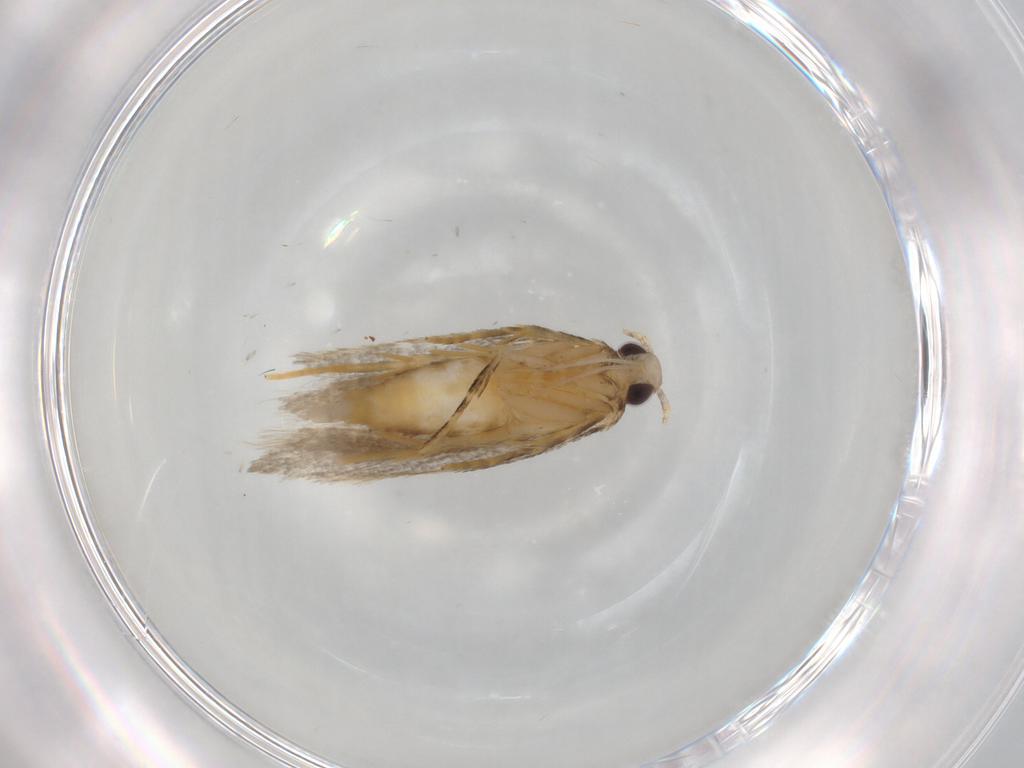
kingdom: Animalia
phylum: Arthropoda
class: Insecta
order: Lepidoptera
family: Autostichidae
